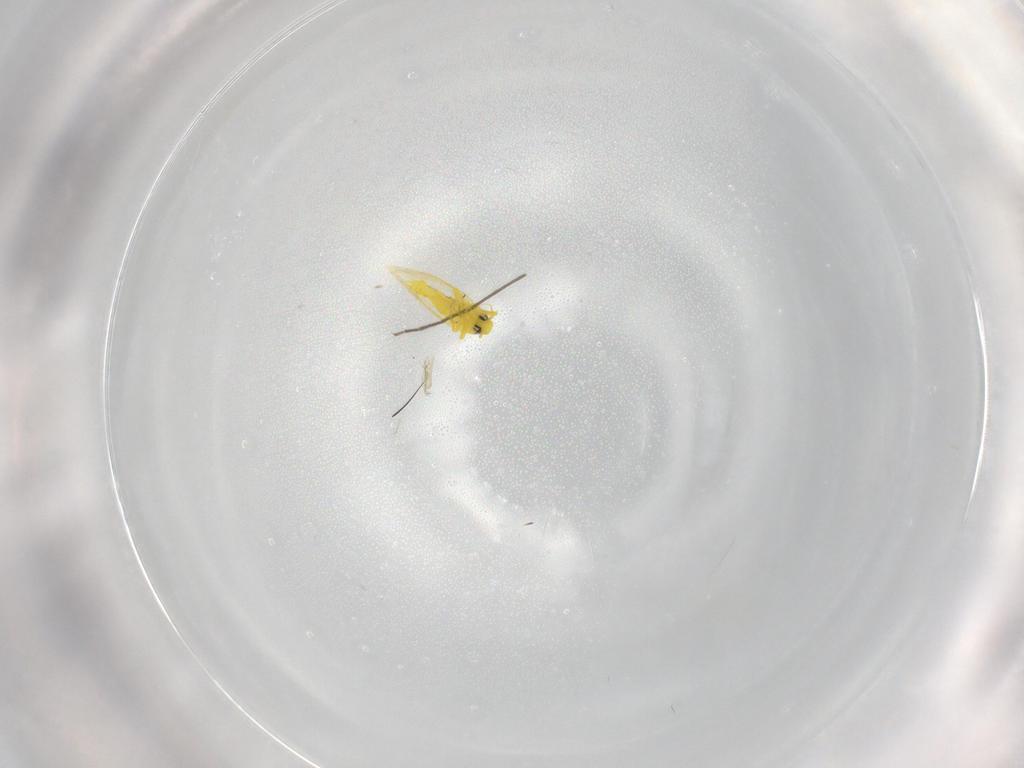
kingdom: Animalia
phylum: Arthropoda
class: Insecta
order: Hemiptera
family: Aleyrodidae
